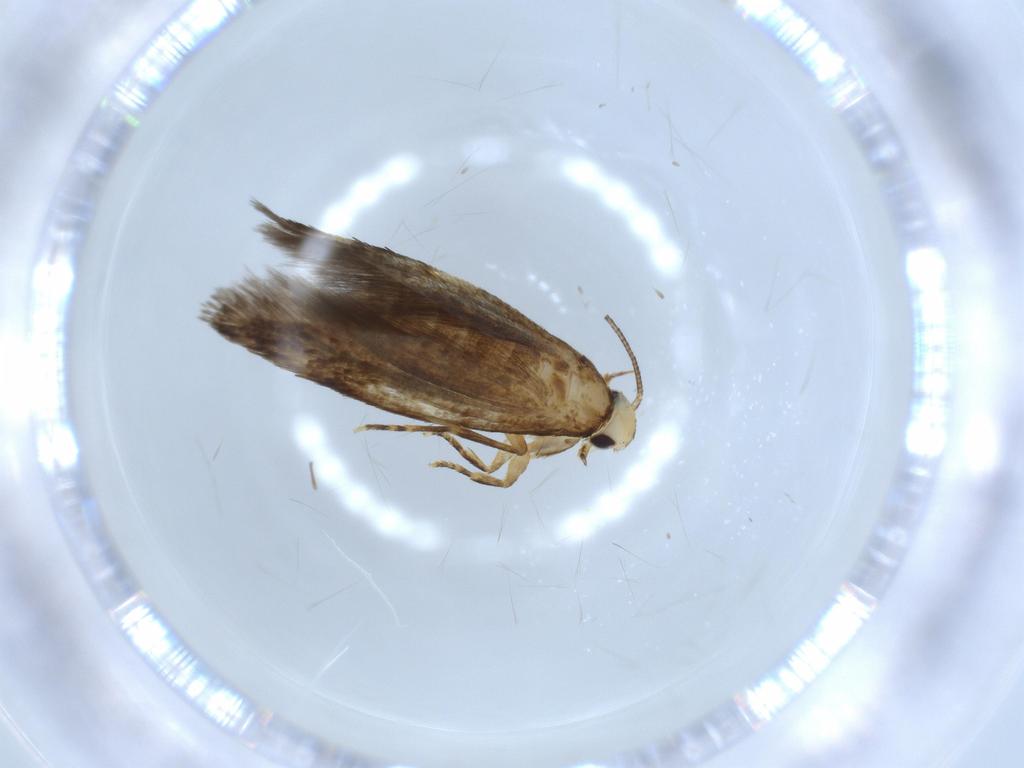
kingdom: Animalia
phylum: Arthropoda
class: Insecta
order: Lepidoptera
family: Tineidae
